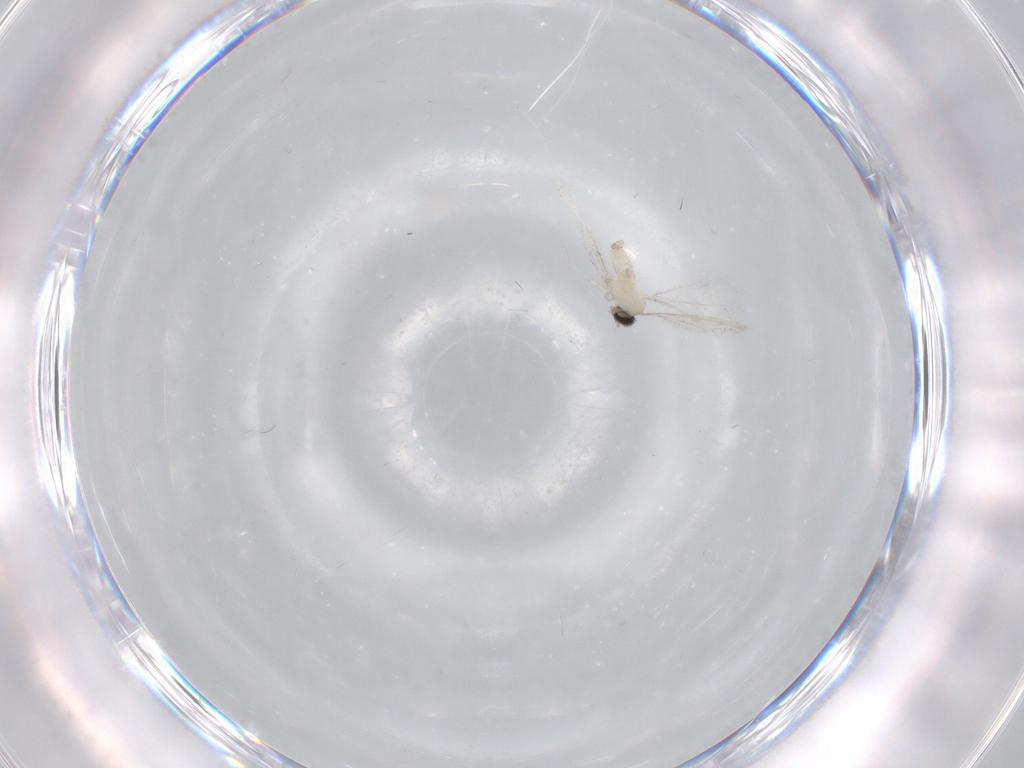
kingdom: Animalia
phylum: Arthropoda
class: Insecta
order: Diptera
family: Cecidomyiidae
